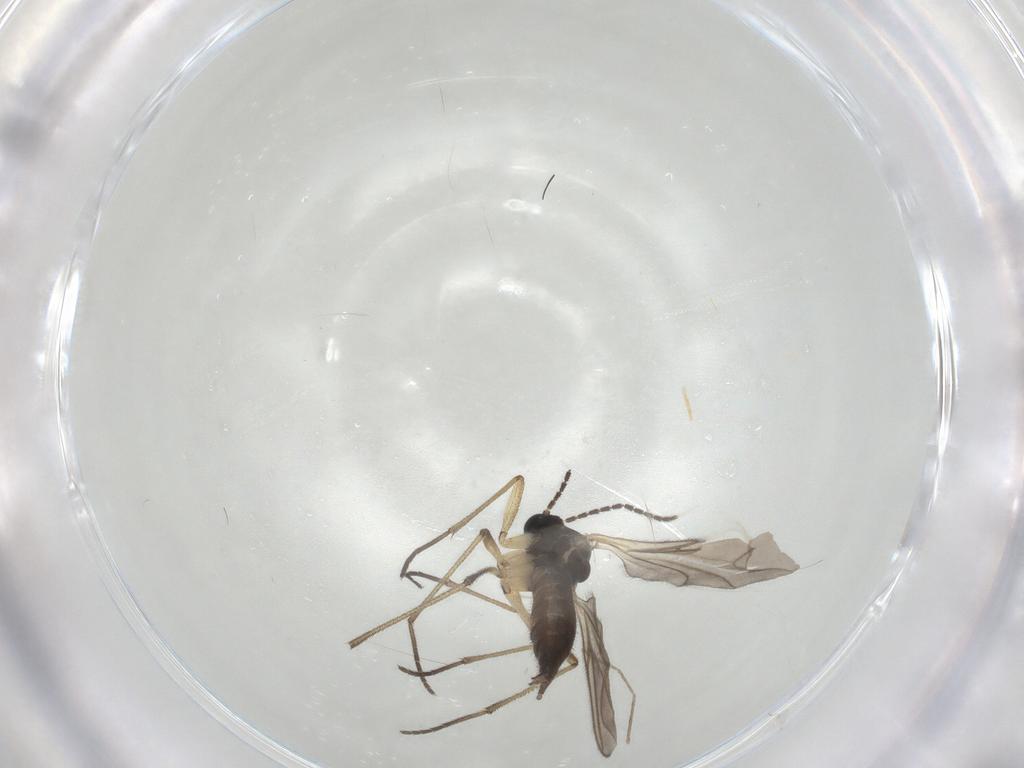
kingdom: Animalia
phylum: Arthropoda
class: Insecta
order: Diptera
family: Sciaridae
